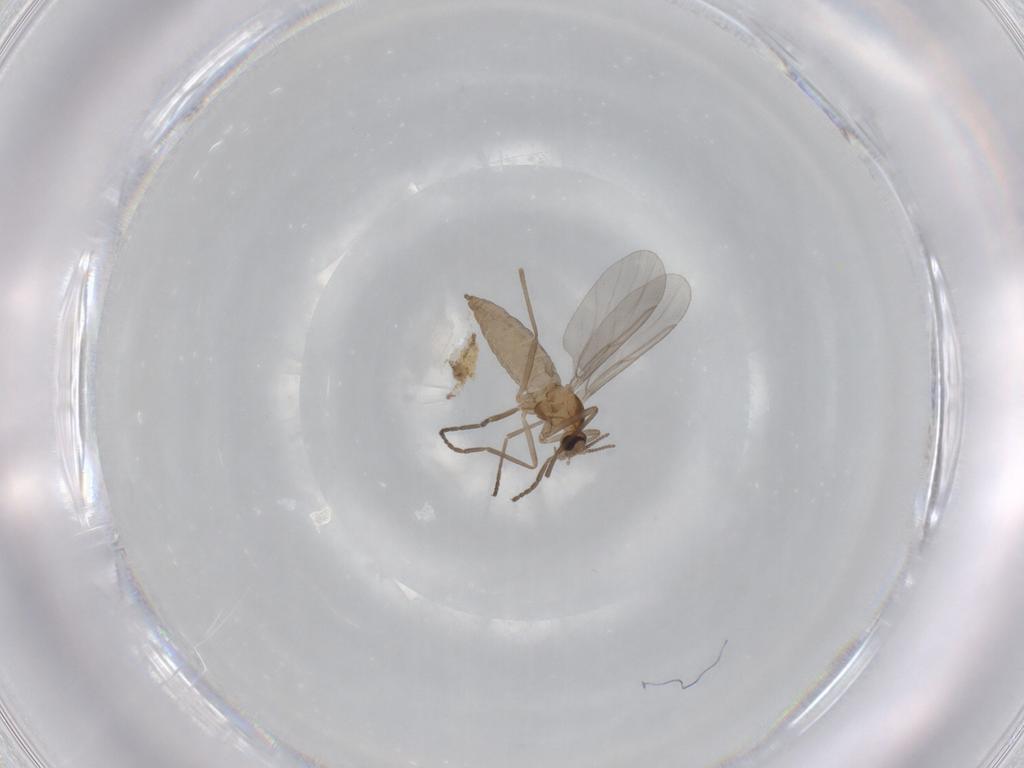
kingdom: Animalia
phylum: Arthropoda
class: Insecta
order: Diptera
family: Cecidomyiidae
